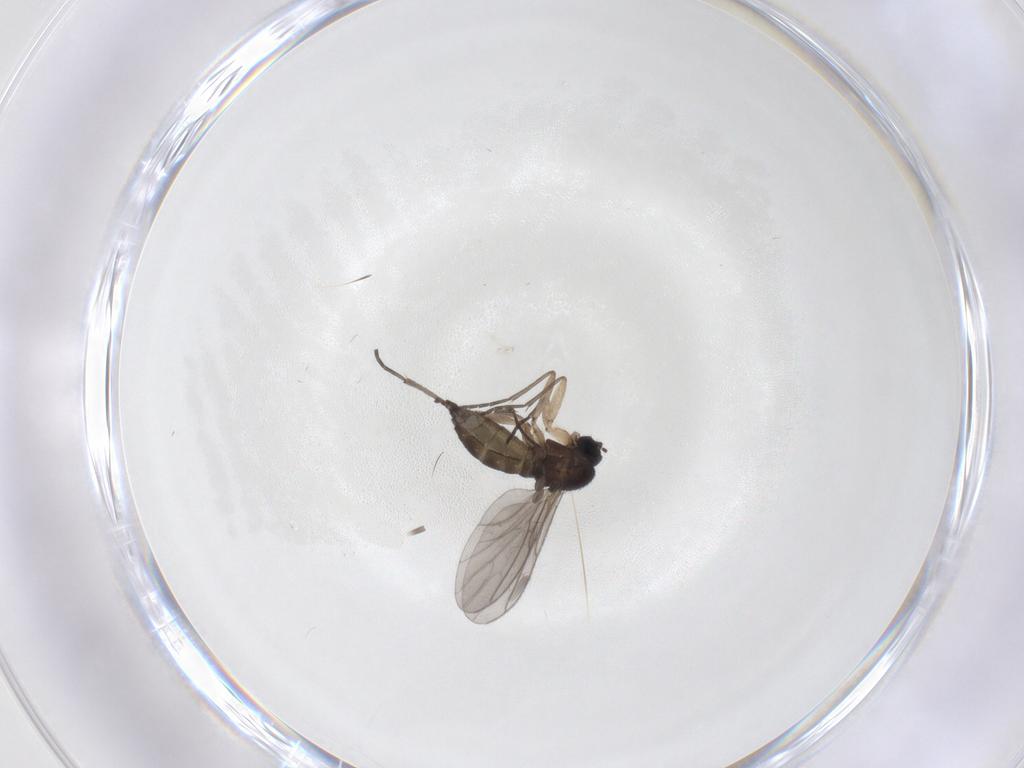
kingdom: Animalia
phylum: Arthropoda
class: Insecta
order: Diptera
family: Sciaridae
